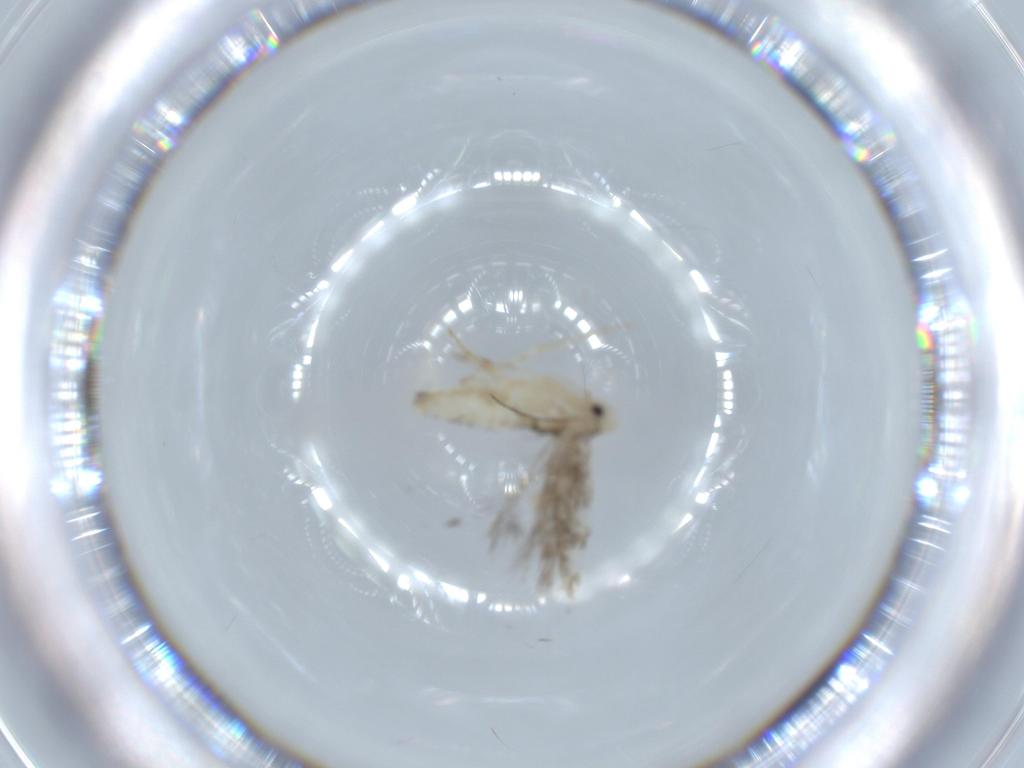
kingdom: Animalia
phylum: Arthropoda
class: Insecta
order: Lepidoptera
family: Gracillariidae
